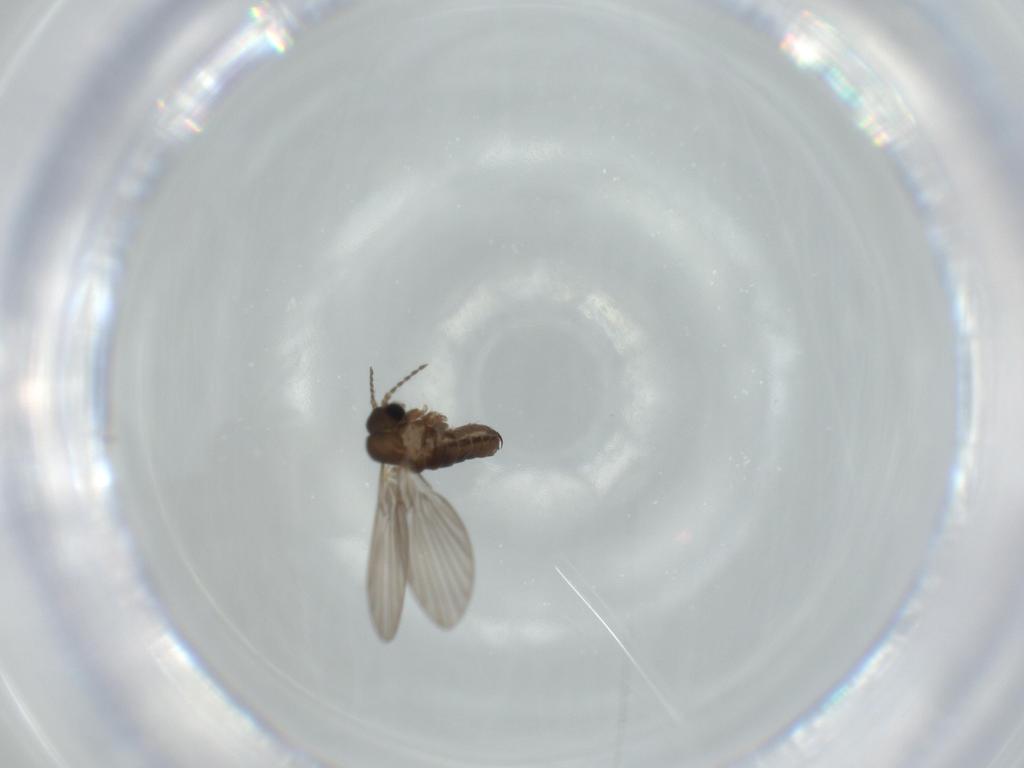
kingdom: Animalia
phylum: Arthropoda
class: Insecta
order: Diptera
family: Psychodidae
